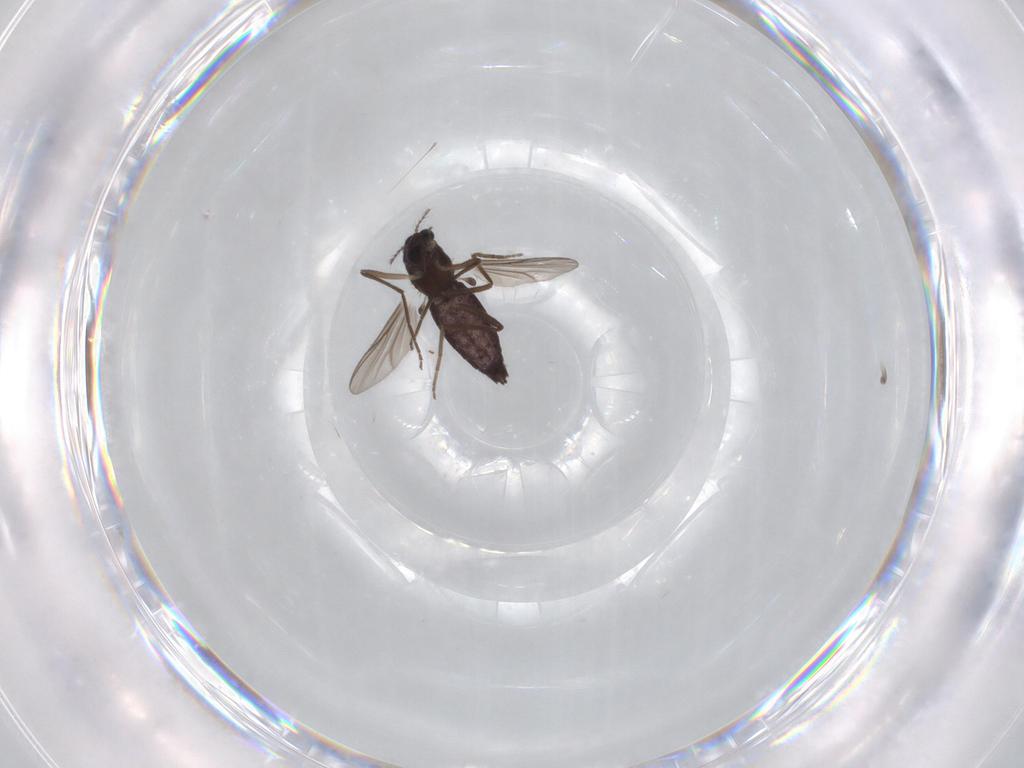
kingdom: Animalia
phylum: Arthropoda
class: Insecta
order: Diptera
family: Chironomidae
